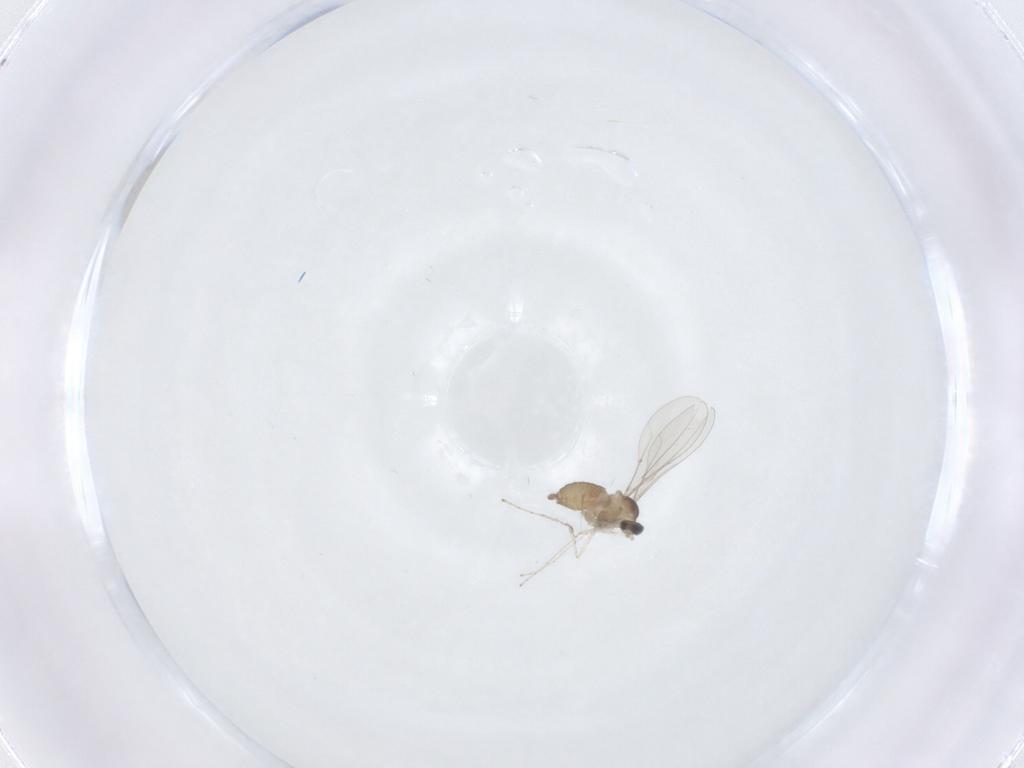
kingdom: Animalia
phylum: Arthropoda
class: Insecta
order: Diptera
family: Cecidomyiidae
